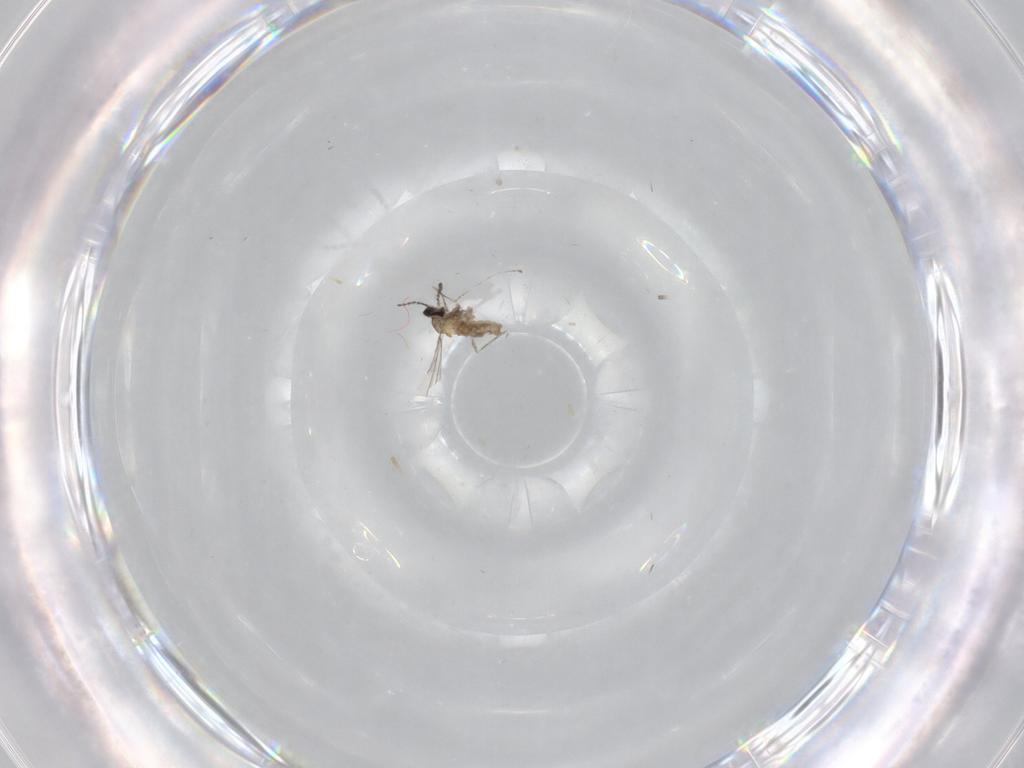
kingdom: Animalia
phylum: Arthropoda
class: Insecta
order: Diptera
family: Cecidomyiidae
